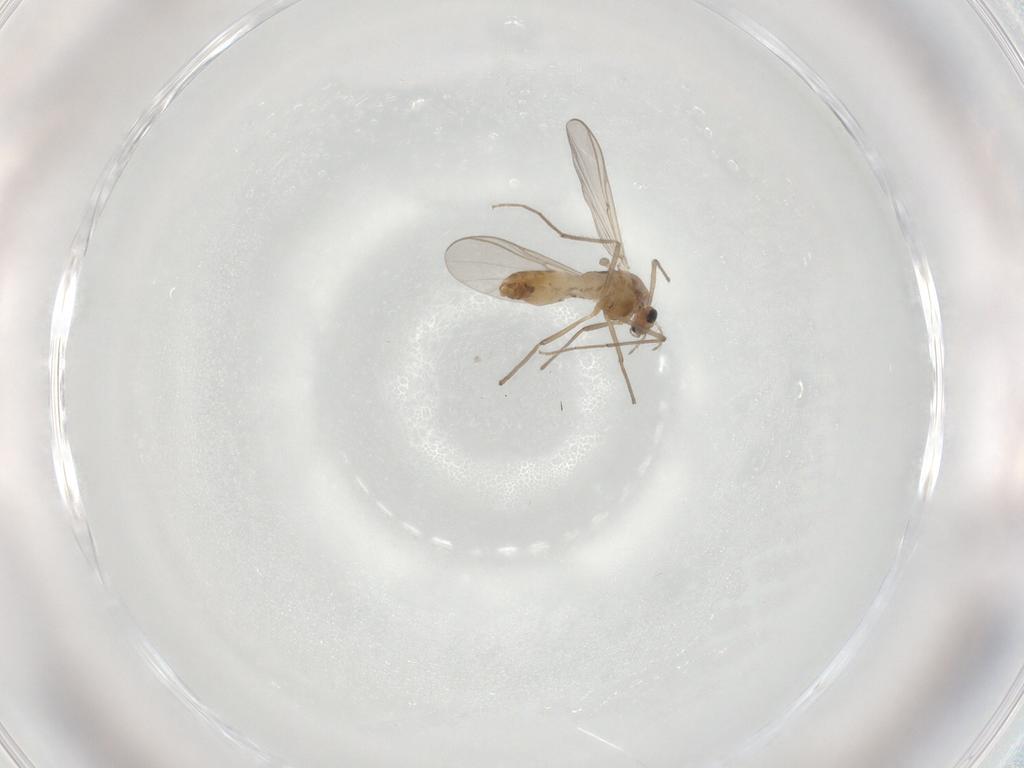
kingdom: Animalia
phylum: Arthropoda
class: Insecta
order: Diptera
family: Chironomidae
